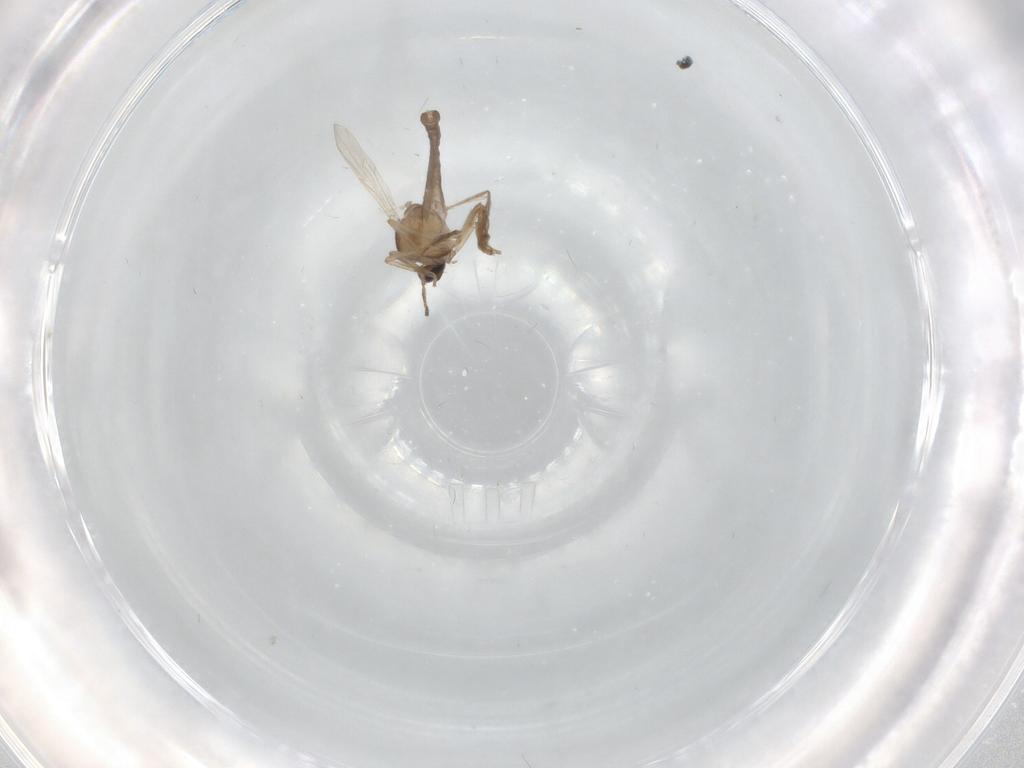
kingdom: Animalia
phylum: Arthropoda
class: Insecta
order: Diptera
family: Ceratopogonidae
